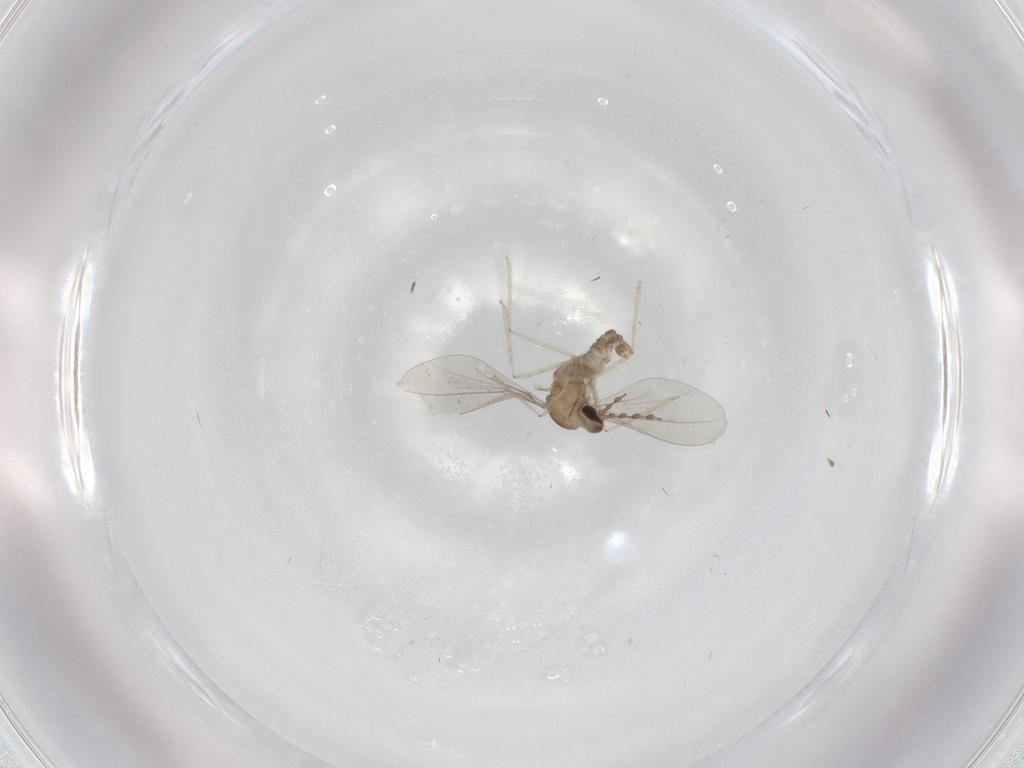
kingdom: Animalia
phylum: Arthropoda
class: Insecta
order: Diptera
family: Cecidomyiidae
